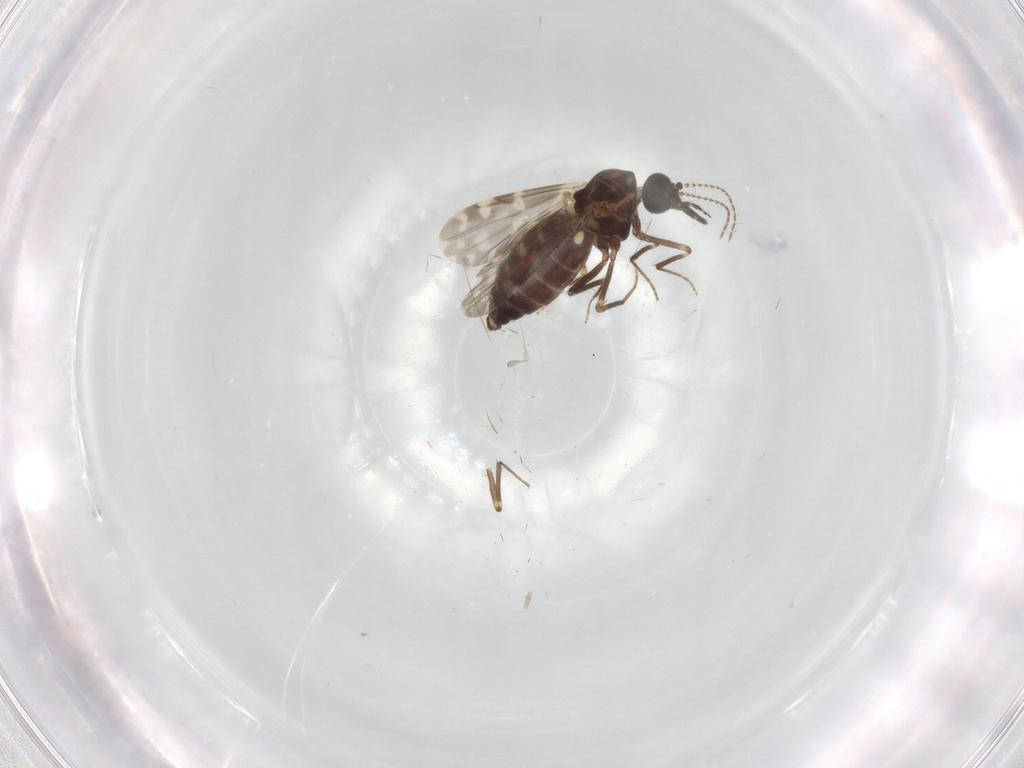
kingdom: Animalia
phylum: Arthropoda
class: Insecta
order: Diptera
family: Ceratopogonidae
